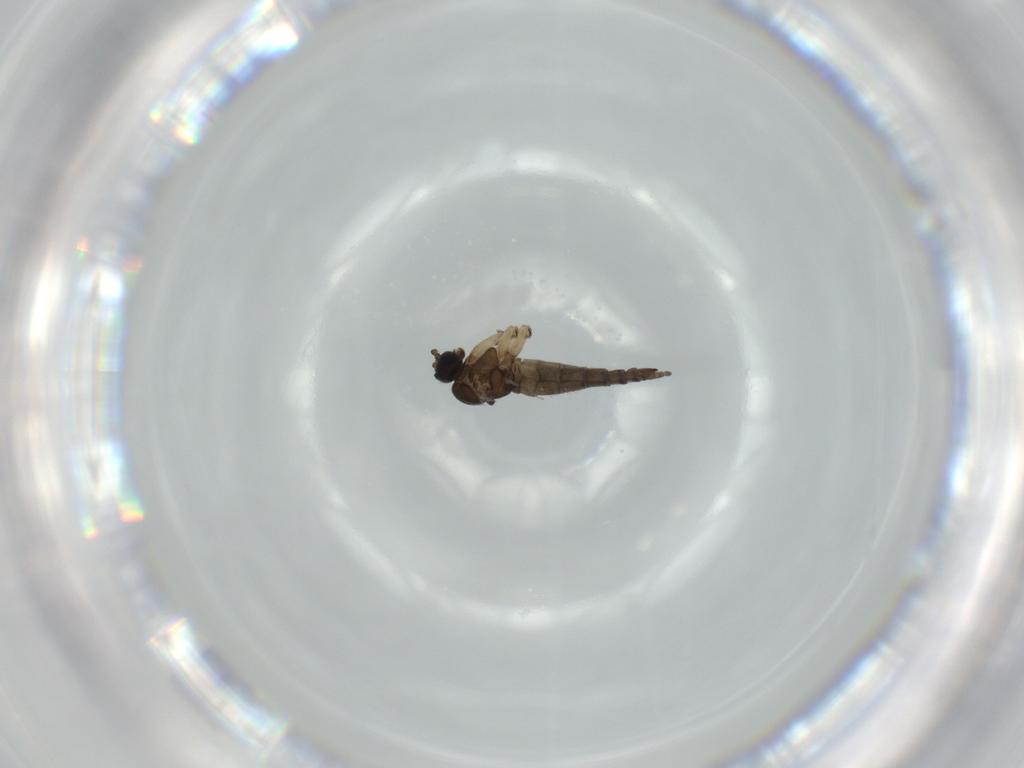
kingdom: Animalia
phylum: Arthropoda
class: Insecta
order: Diptera
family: Sciaridae
